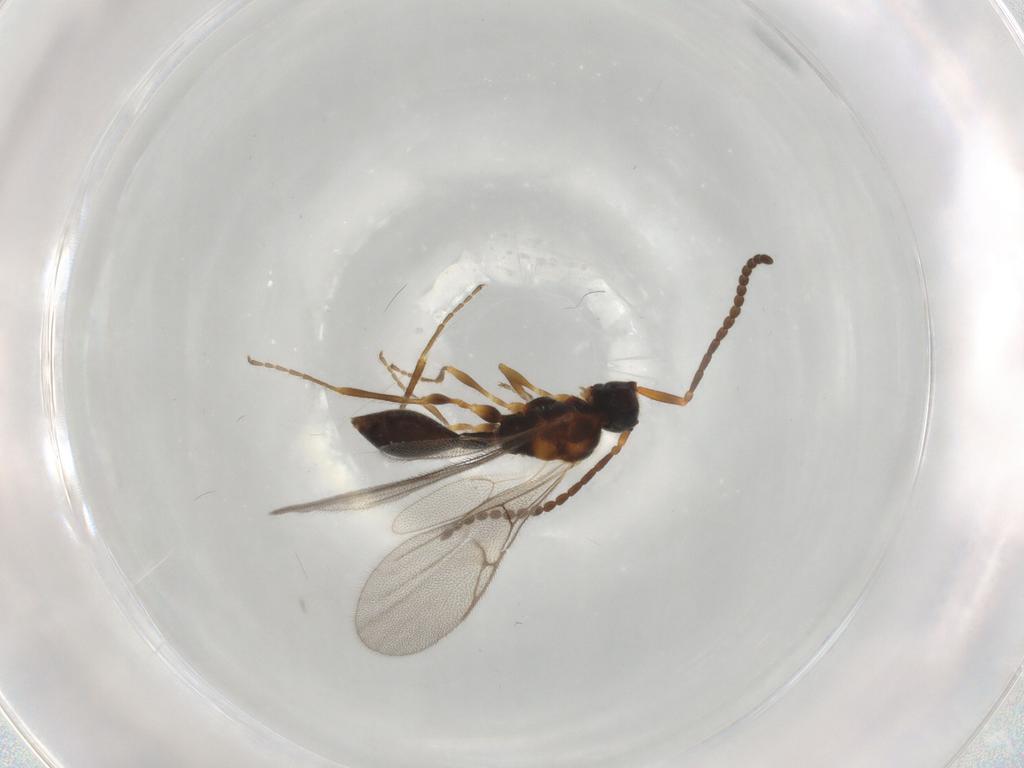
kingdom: Animalia
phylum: Arthropoda
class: Insecta
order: Hymenoptera
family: Diapriidae
